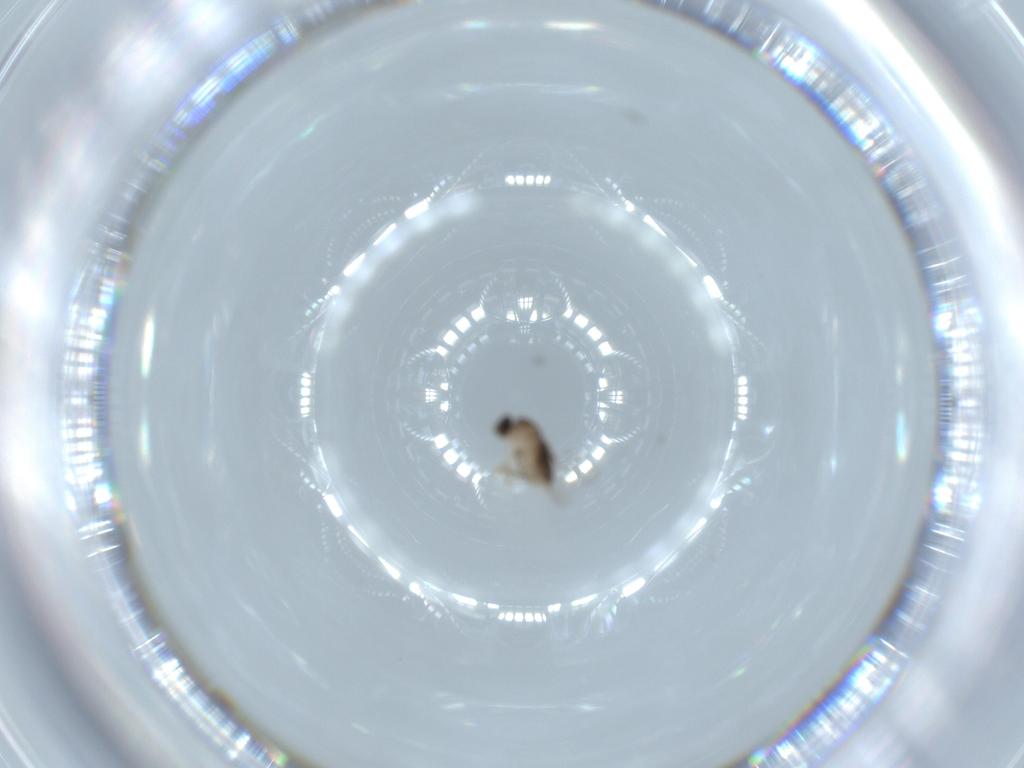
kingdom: Animalia
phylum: Arthropoda
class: Insecta
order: Diptera
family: Phoridae
